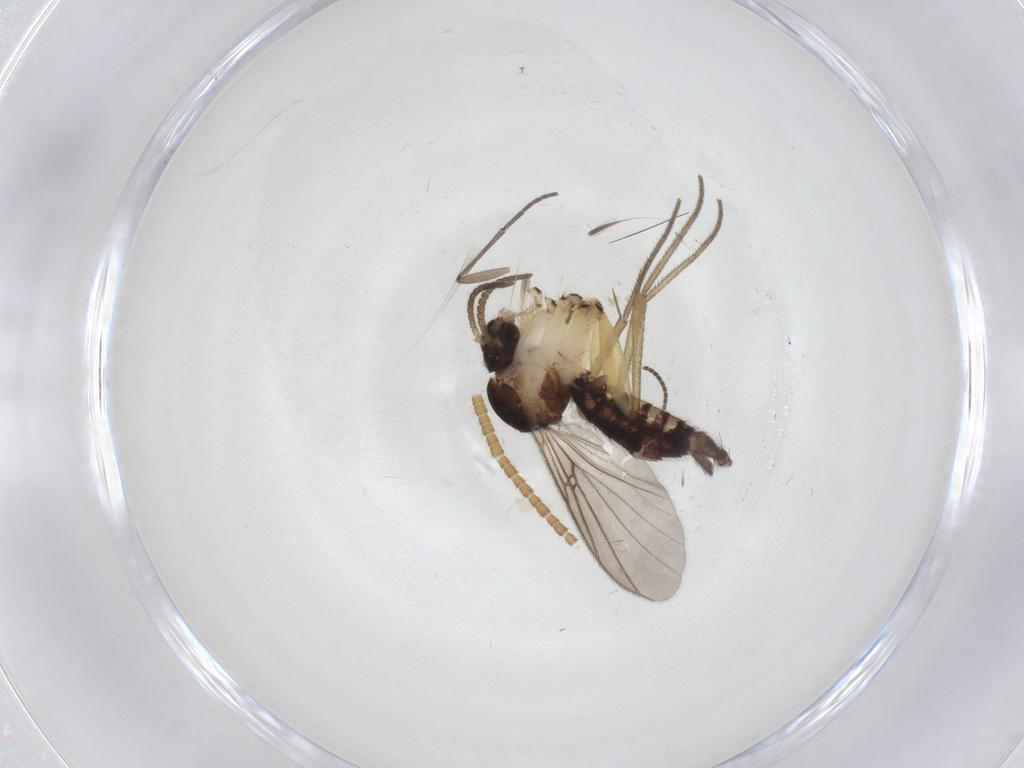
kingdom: Animalia
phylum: Arthropoda
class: Insecta
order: Diptera
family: Sciaridae
